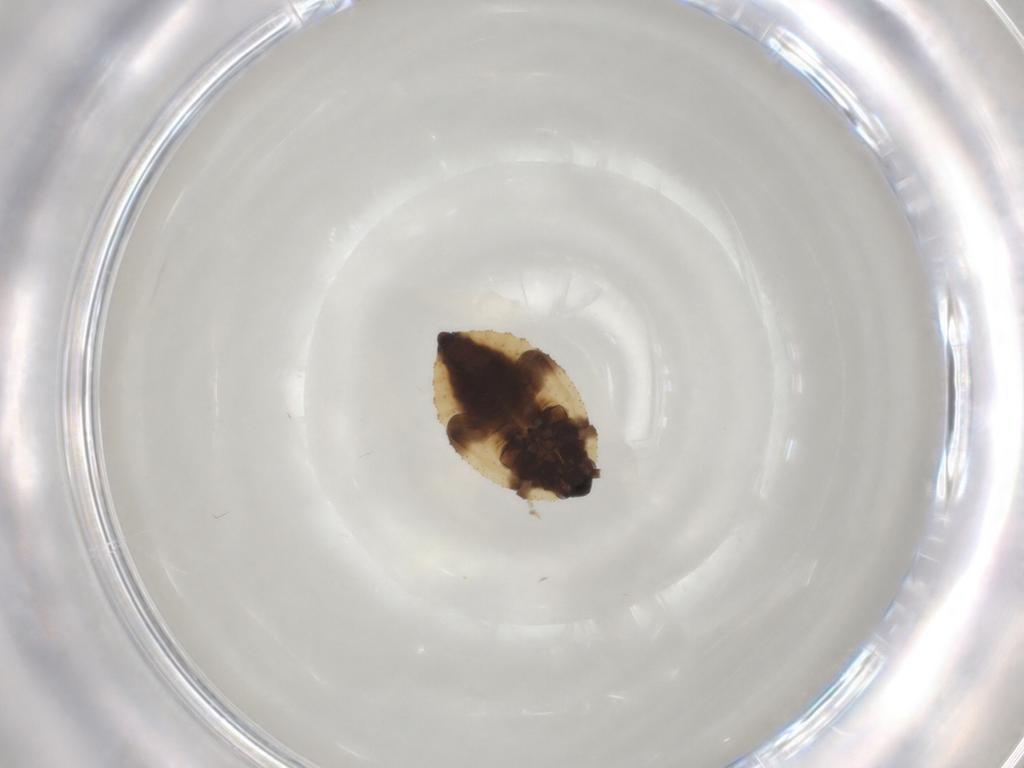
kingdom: Animalia
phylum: Arthropoda
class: Insecta
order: Hemiptera
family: Tingidae
